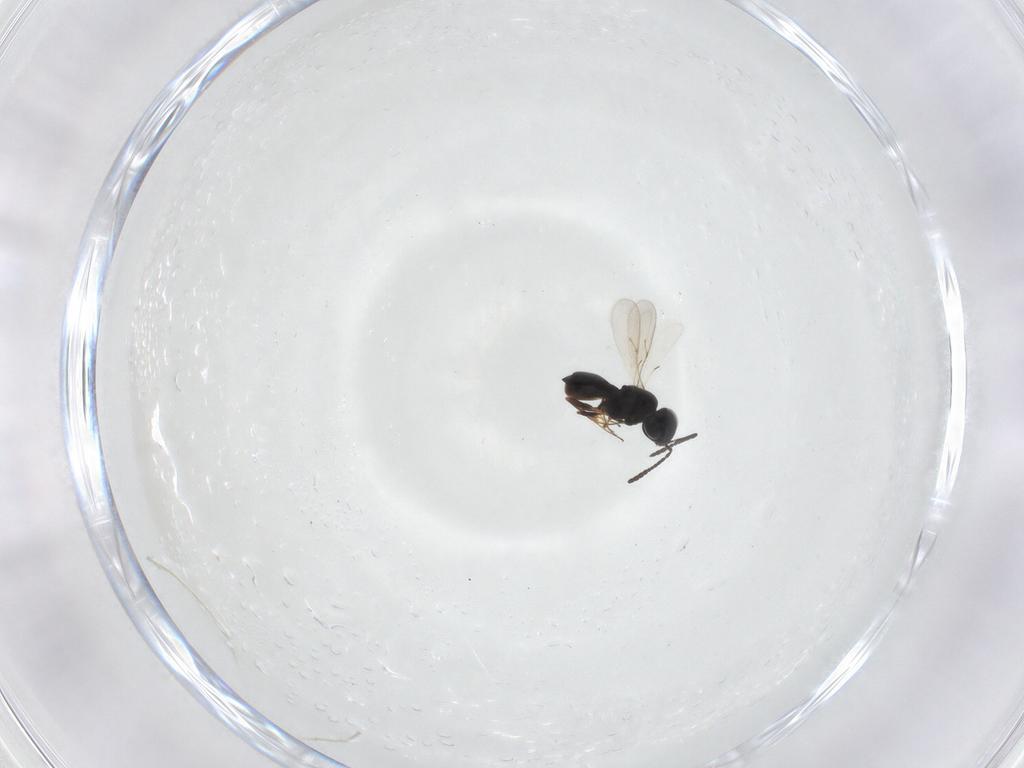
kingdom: Animalia
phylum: Arthropoda
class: Insecta
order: Hymenoptera
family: Scelionidae
